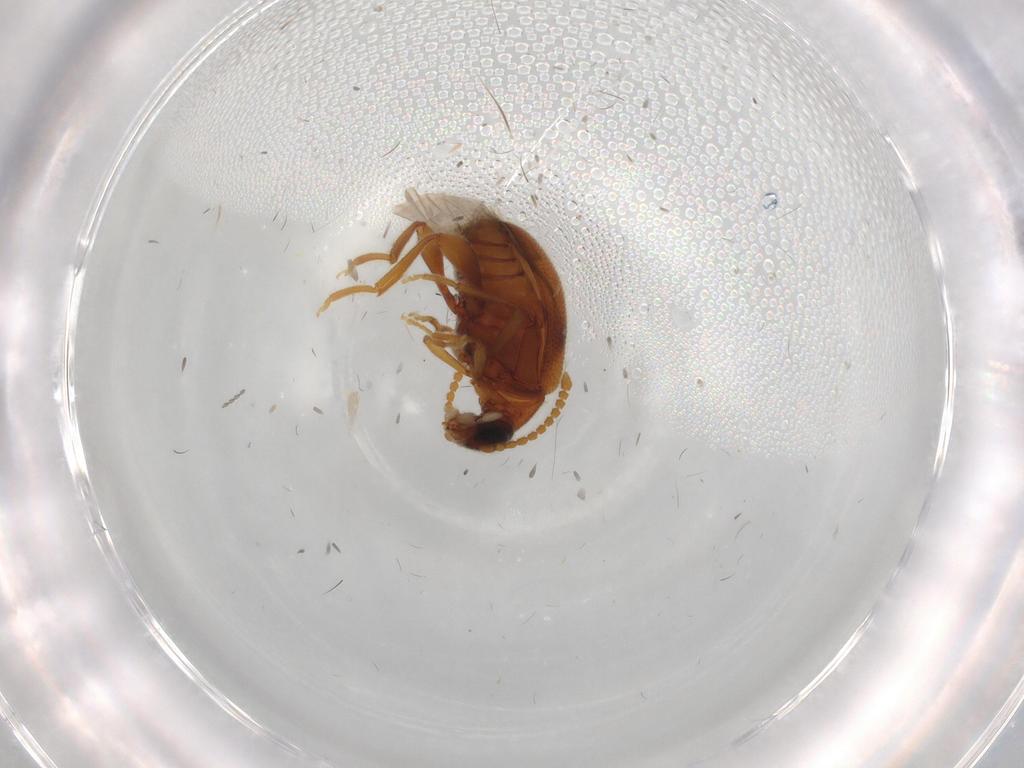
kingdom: Animalia
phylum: Arthropoda
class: Insecta
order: Coleoptera
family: Aderidae
